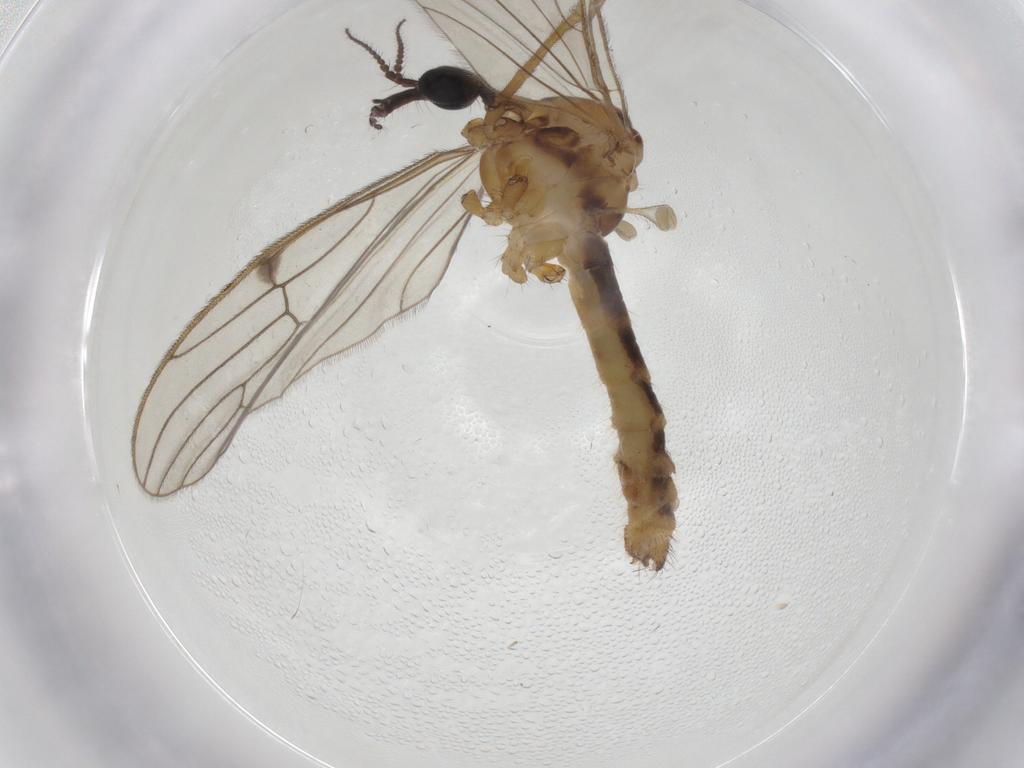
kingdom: Animalia
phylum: Arthropoda
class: Insecta
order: Diptera
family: Limoniidae
